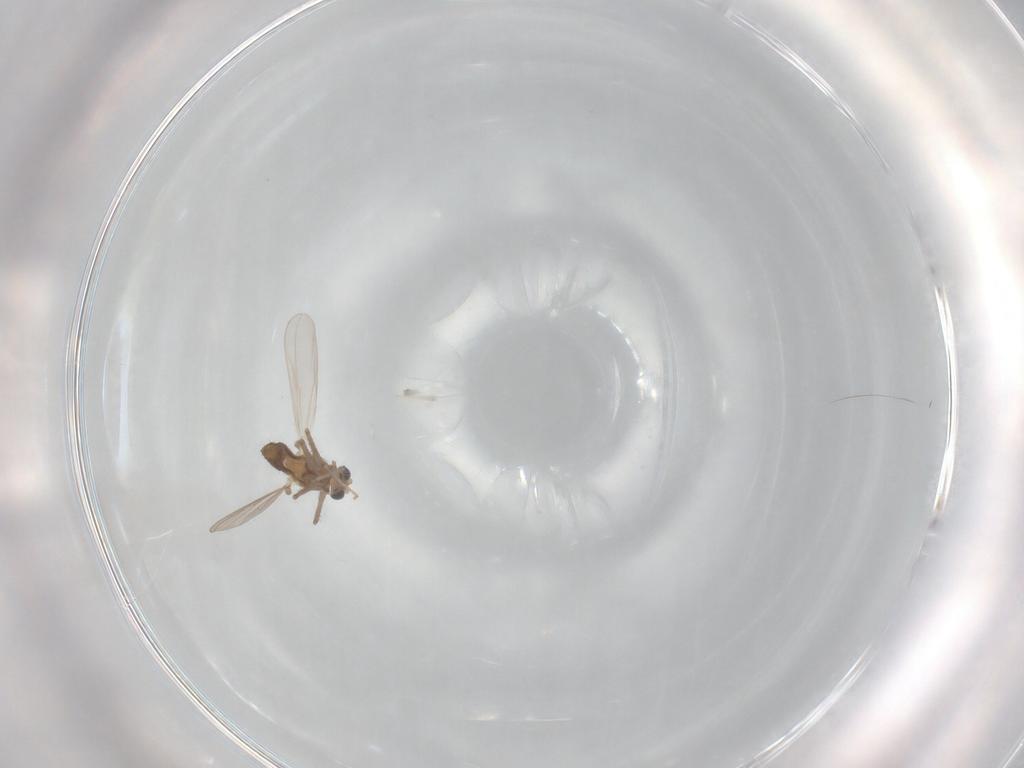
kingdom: Animalia
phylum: Arthropoda
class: Insecta
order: Diptera
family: Chironomidae
